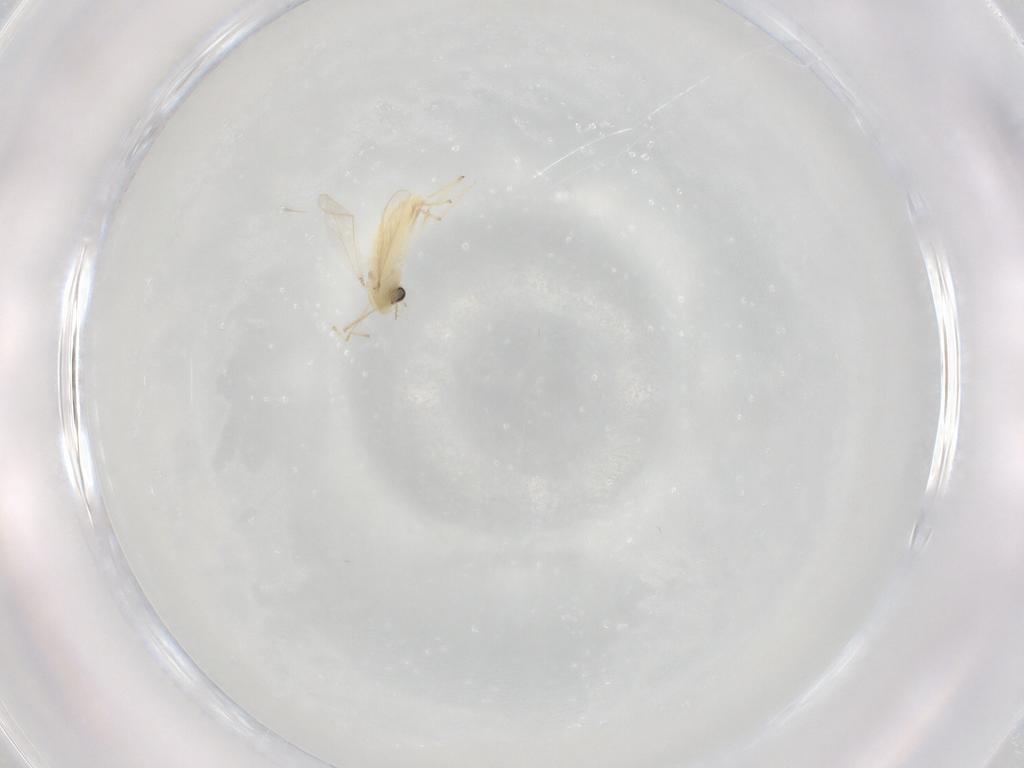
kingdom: Animalia
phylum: Arthropoda
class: Insecta
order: Diptera
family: Chironomidae
